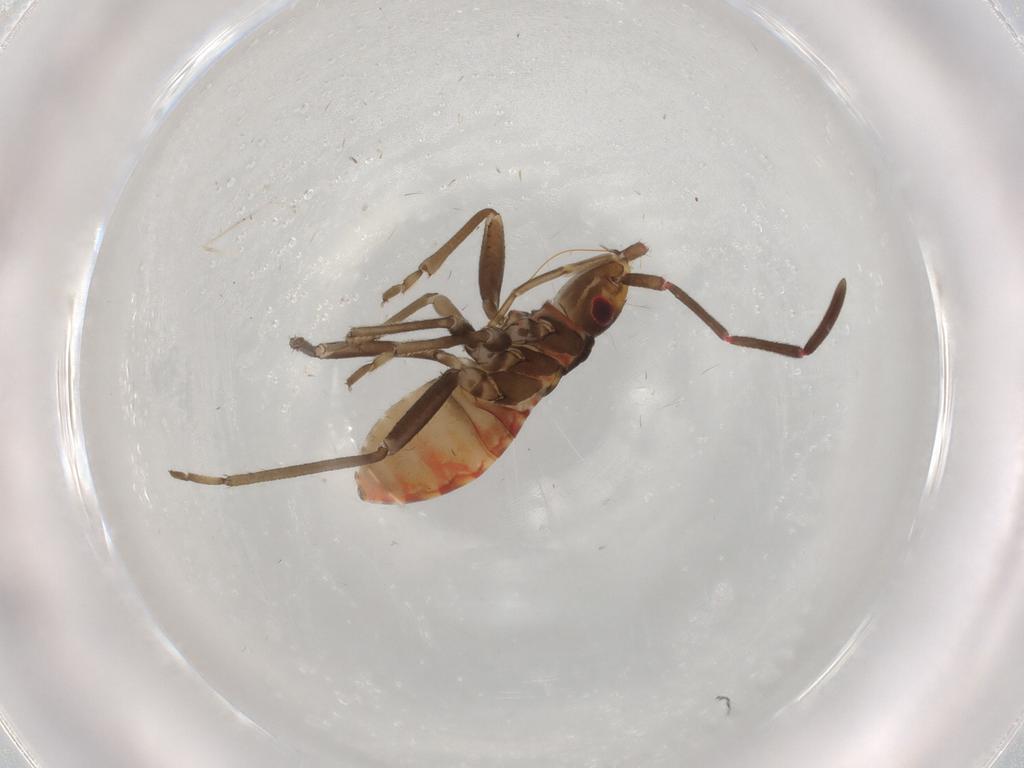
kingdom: Animalia
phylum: Arthropoda
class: Insecta
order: Hemiptera
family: Rhyparochromidae
